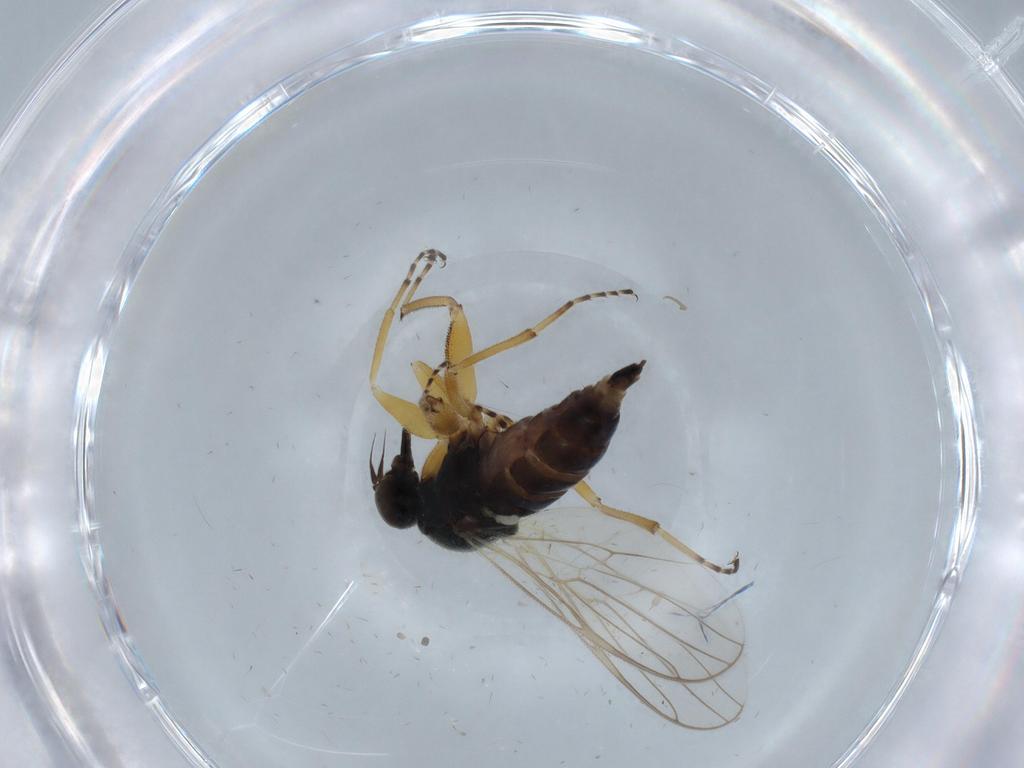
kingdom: Animalia
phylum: Arthropoda
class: Insecta
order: Diptera
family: Hybotidae
